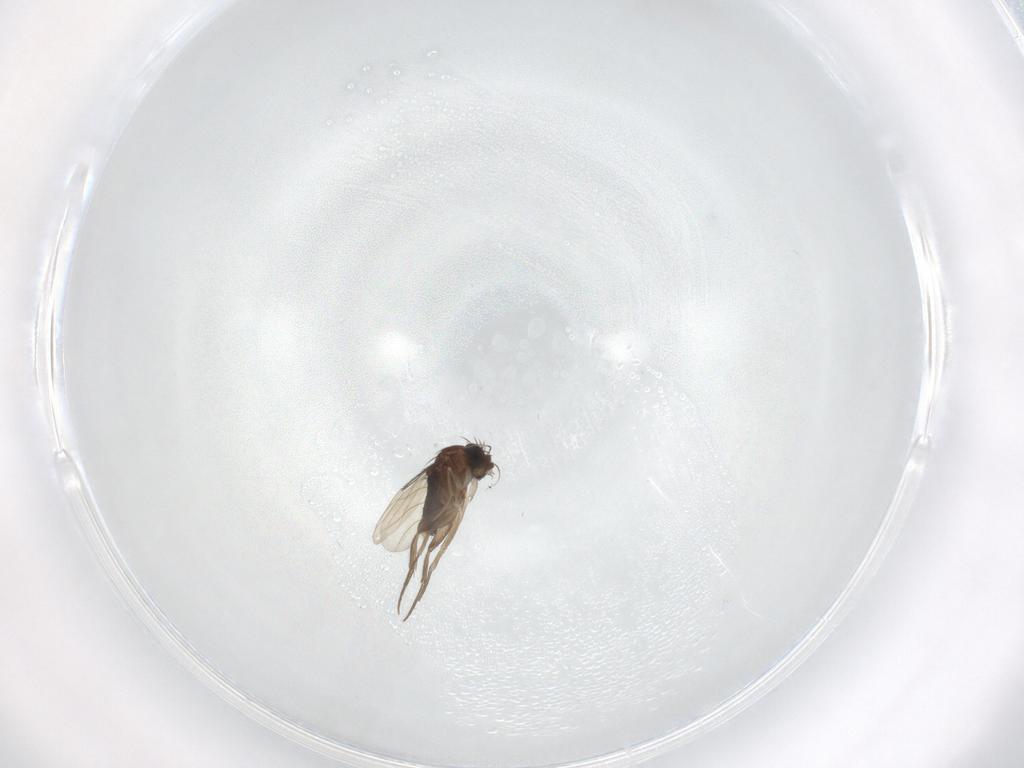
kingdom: Animalia
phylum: Arthropoda
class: Insecta
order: Diptera
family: Phoridae
